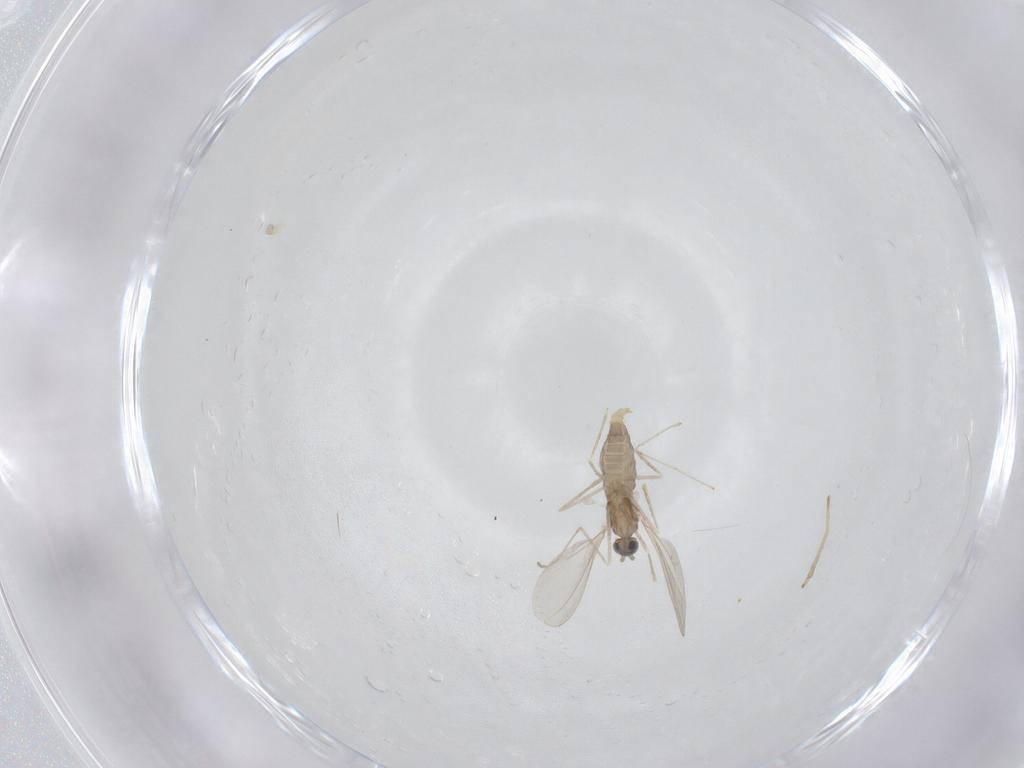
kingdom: Animalia
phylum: Arthropoda
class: Insecta
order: Diptera
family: Cecidomyiidae
